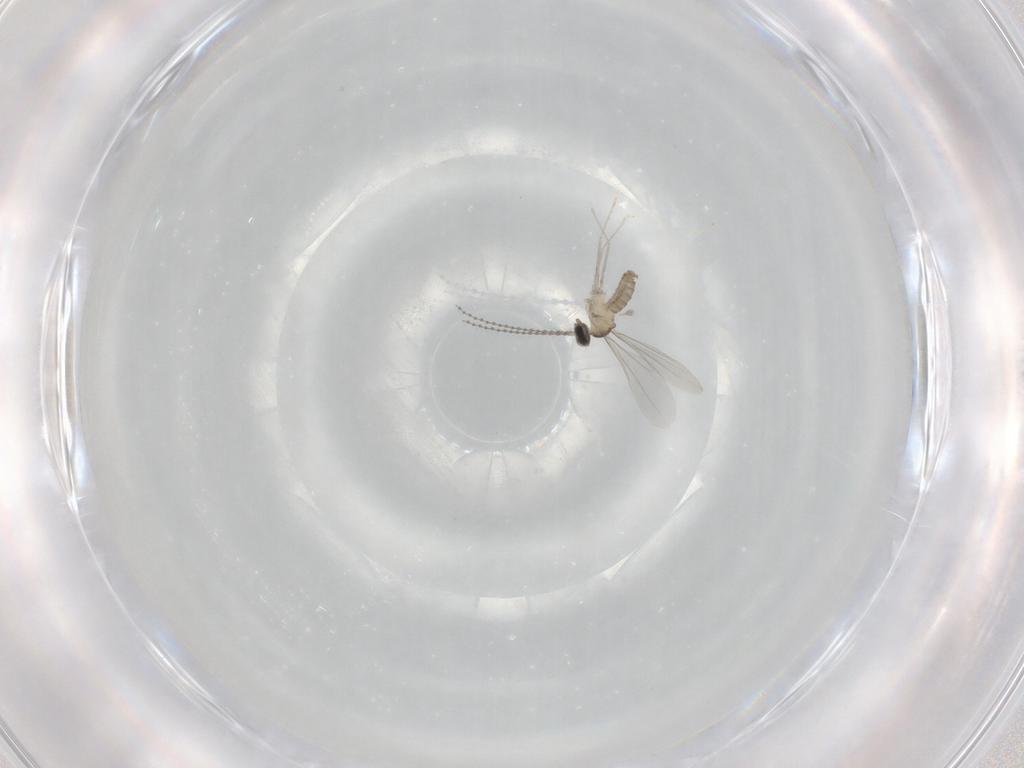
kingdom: Animalia
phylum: Arthropoda
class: Insecta
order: Diptera
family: Cecidomyiidae
